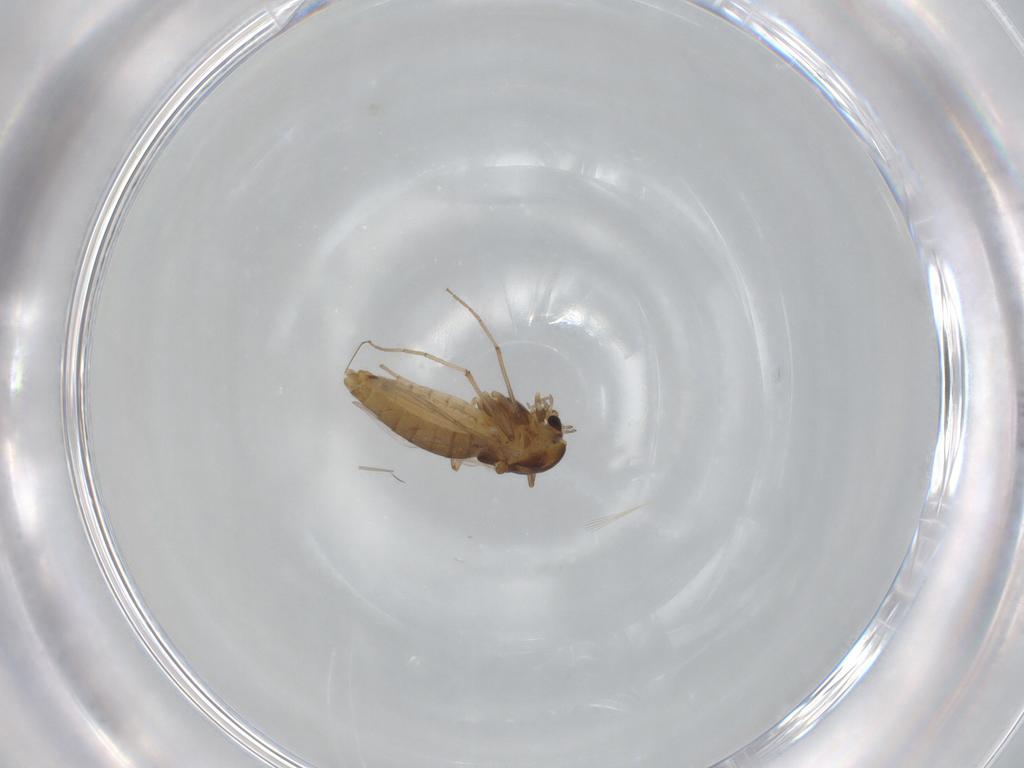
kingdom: Animalia
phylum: Arthropoda
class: Insecta
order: Diptera
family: Chironomidae
